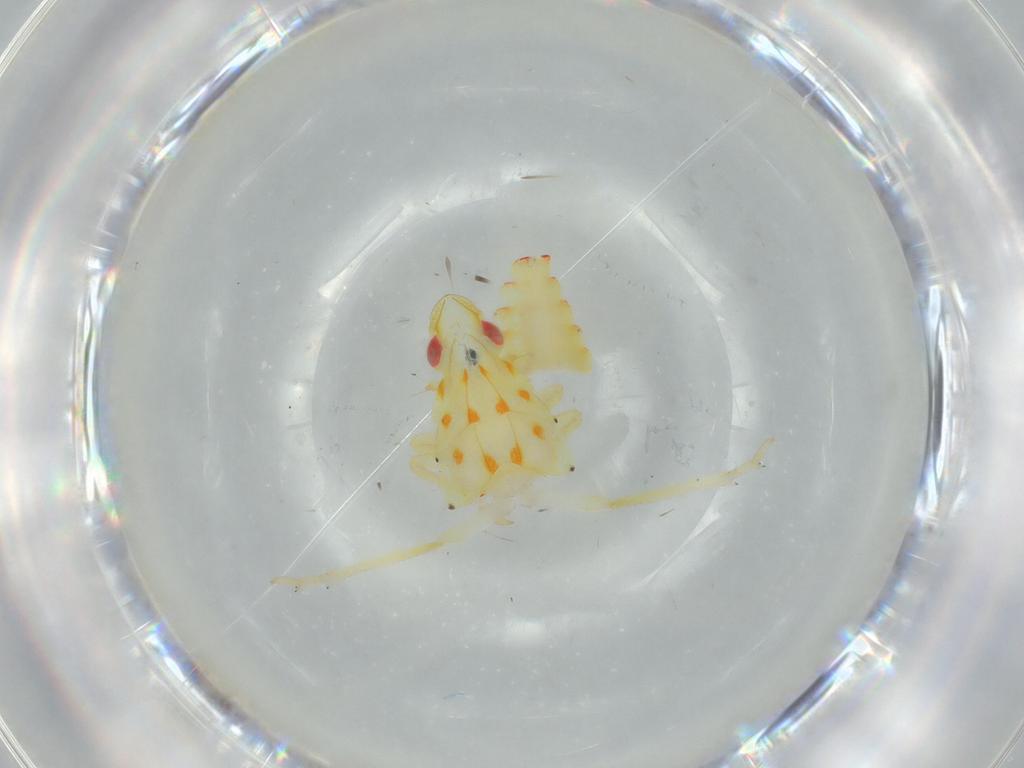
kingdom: Animalia
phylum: Arthropoda
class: Insecta
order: Hemiptera
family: Tropiduchidae
